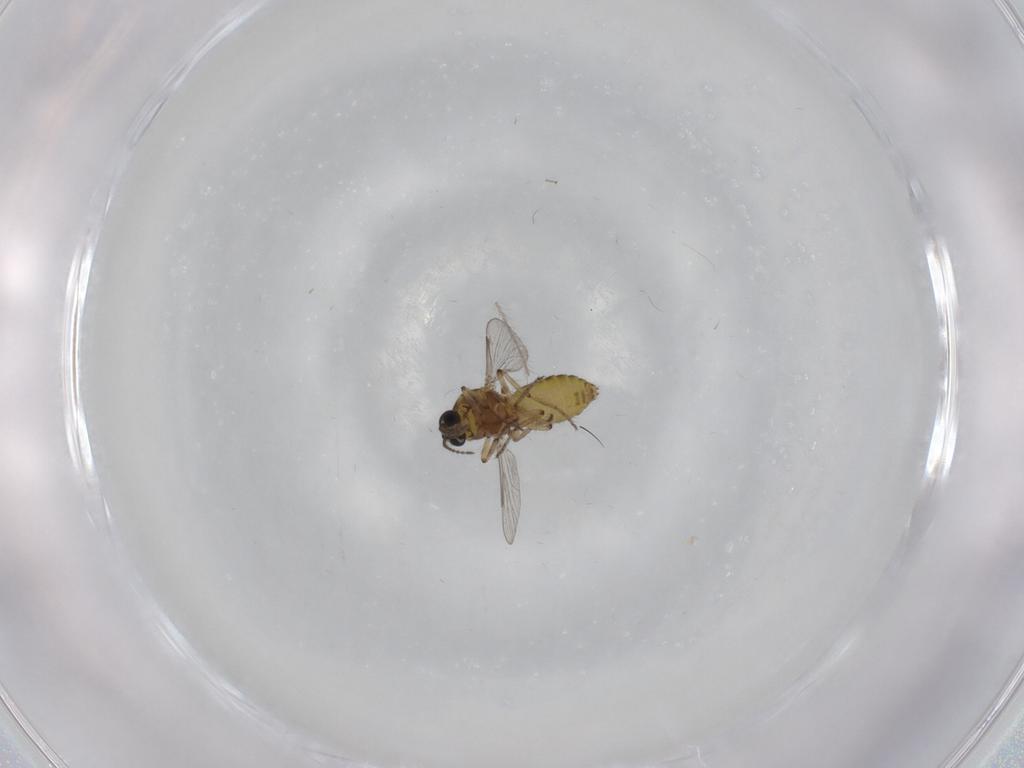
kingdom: Animalia
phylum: Arthropoda
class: Insecta
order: Diptera
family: Ceratopogonidae
